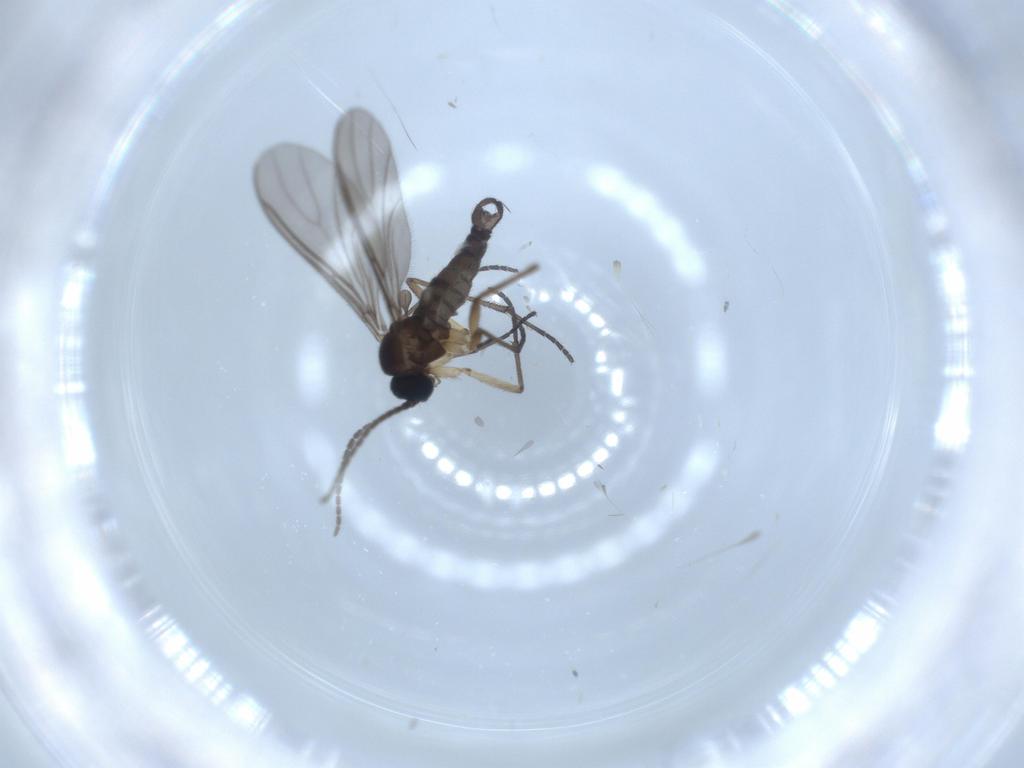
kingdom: Animalia
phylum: Arthropoda
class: Insecta
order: Diptera
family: Sciaridae
